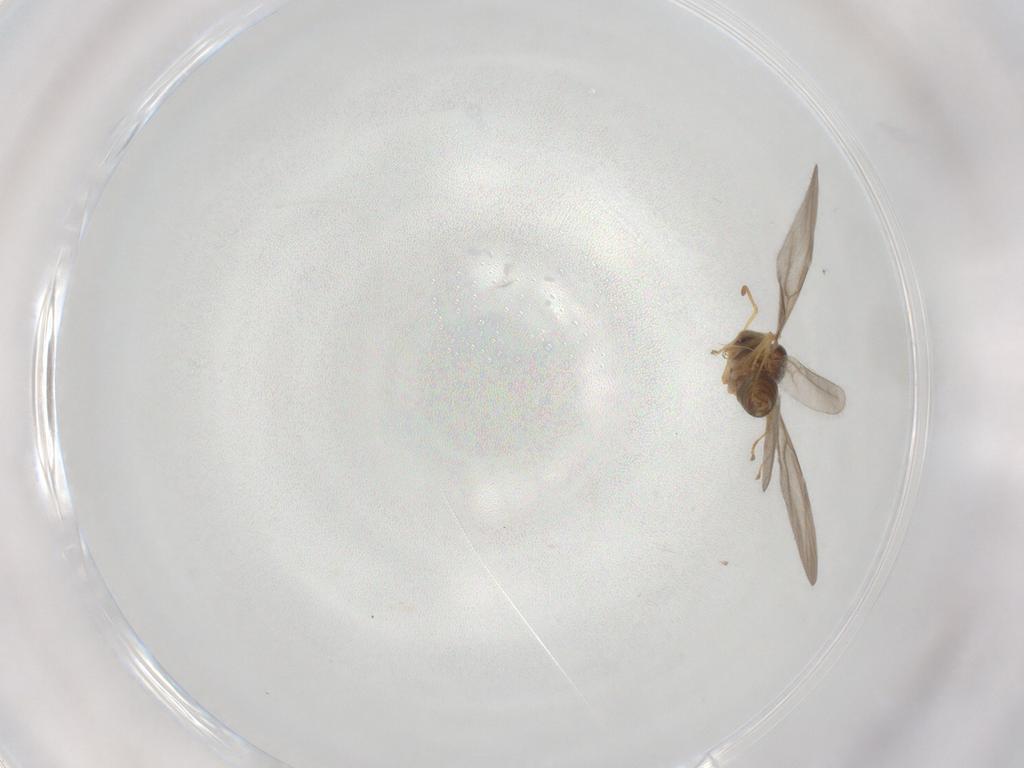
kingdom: Animalia
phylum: Arthropoda
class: Insecta
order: Hymenoptera
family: Formicidae
